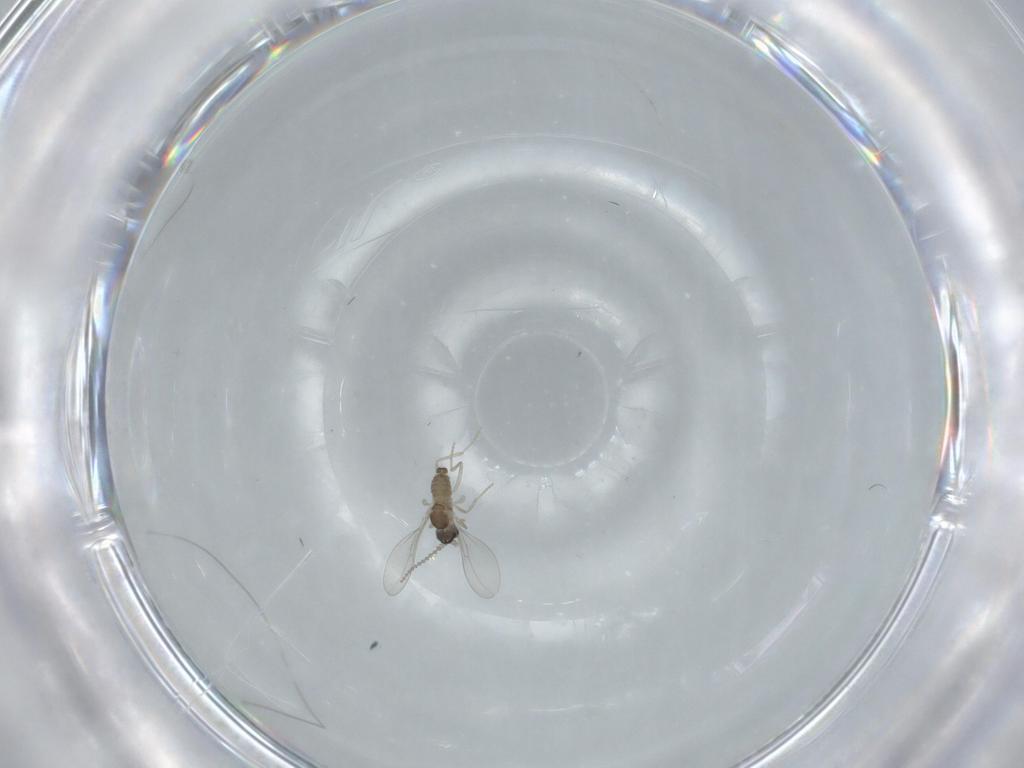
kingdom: Animalia
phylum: Arthropoda
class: Insecta
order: Diptera
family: Cecidomyiidae
